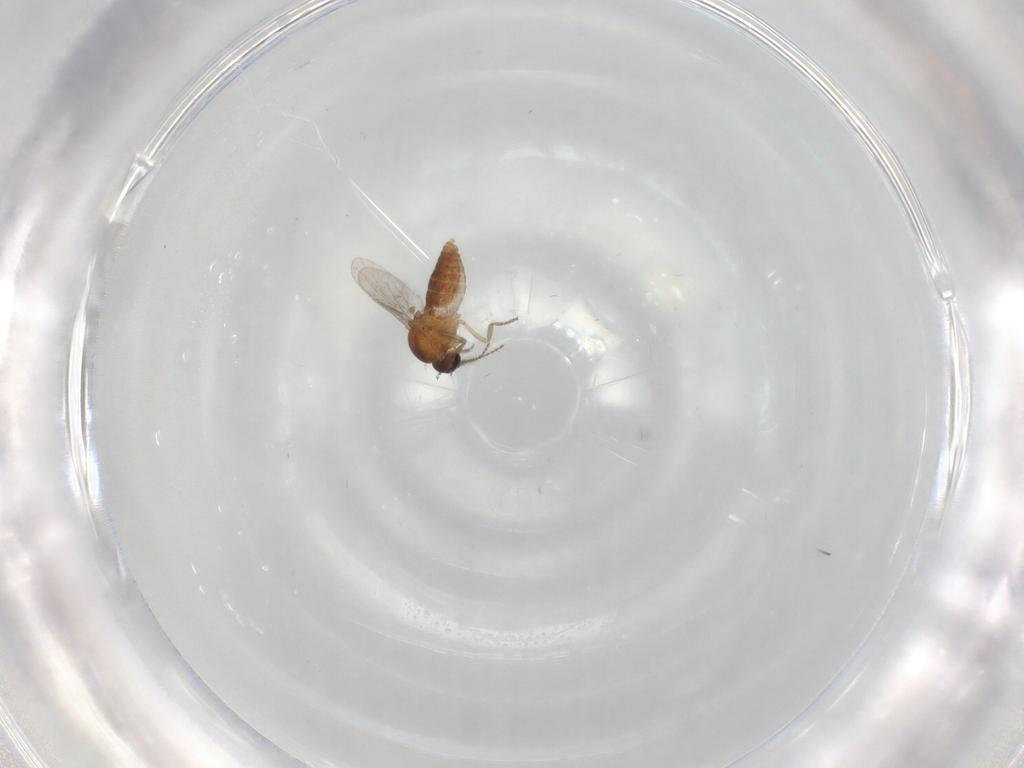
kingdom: Animalia
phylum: Arthropoda
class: Insecta
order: Diptera
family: Ceratopogonidae
